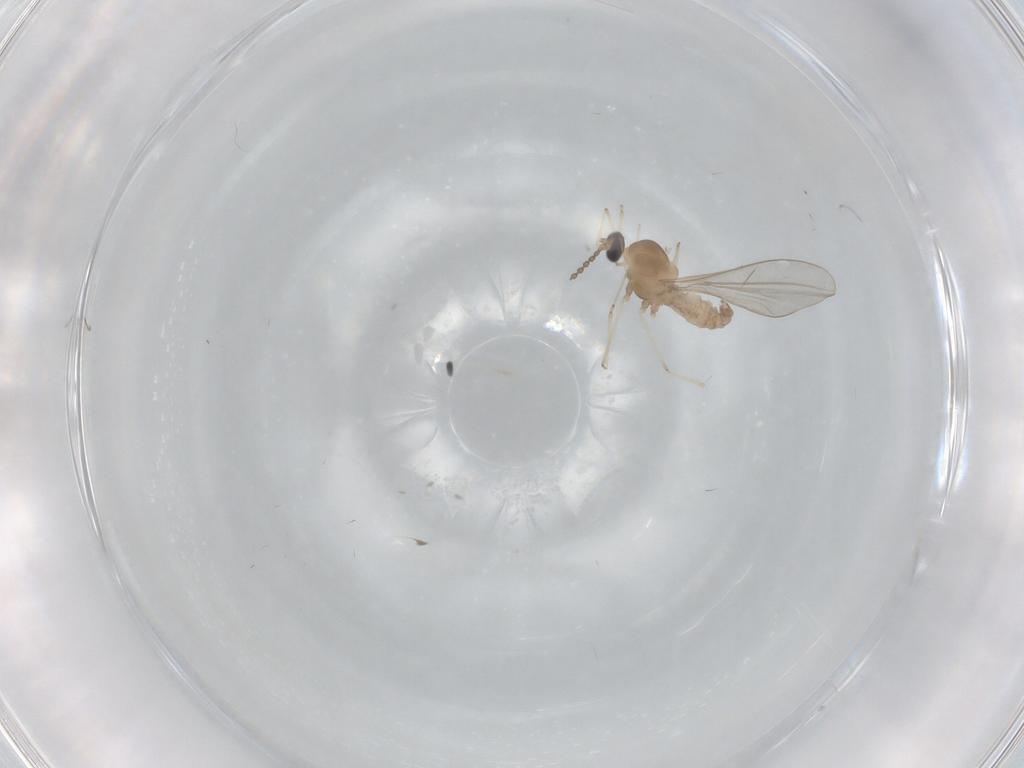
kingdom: Animalia
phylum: Arthropoda
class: Insecta
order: Diptera
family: Cecidomyiidae
